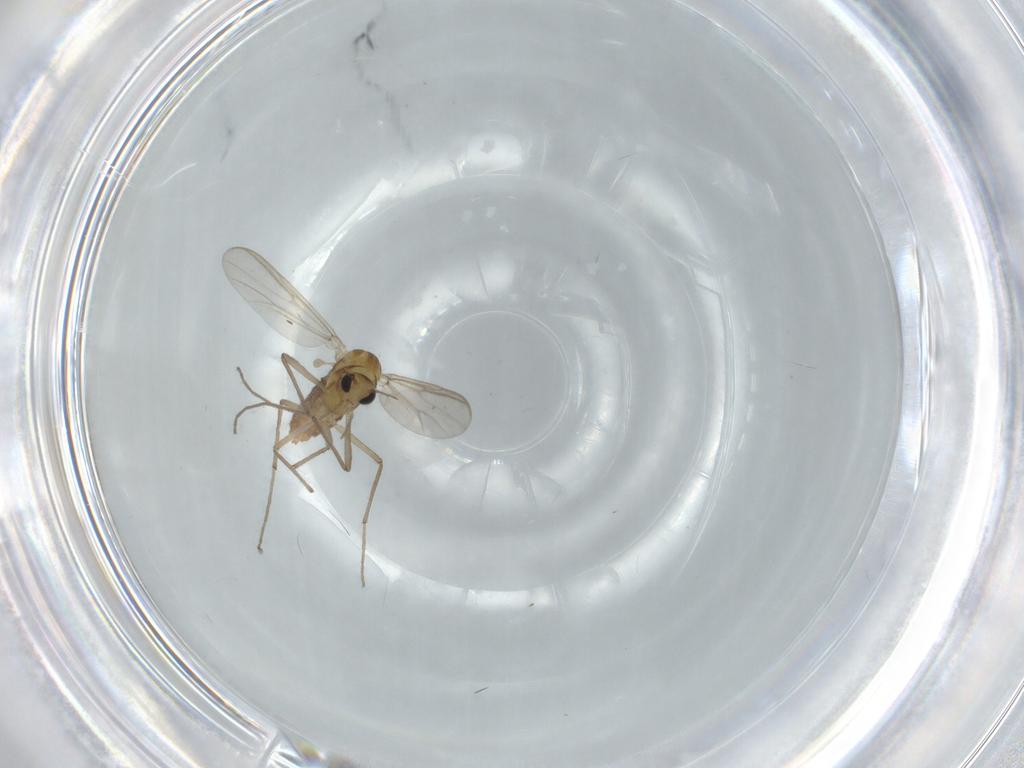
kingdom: Animalia
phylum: Arthropoda
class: Insecta
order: Diptera
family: Chironomidae
